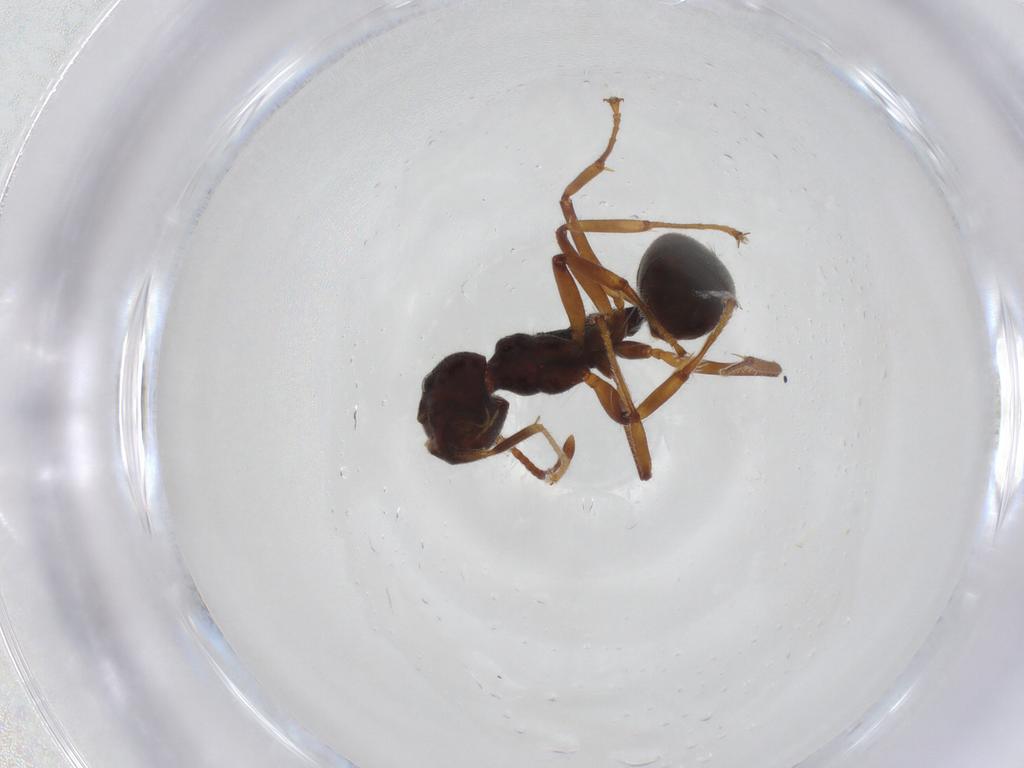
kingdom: Animalia
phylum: Arthropoda
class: Insecta
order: Hymenoptera
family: Formicidae
